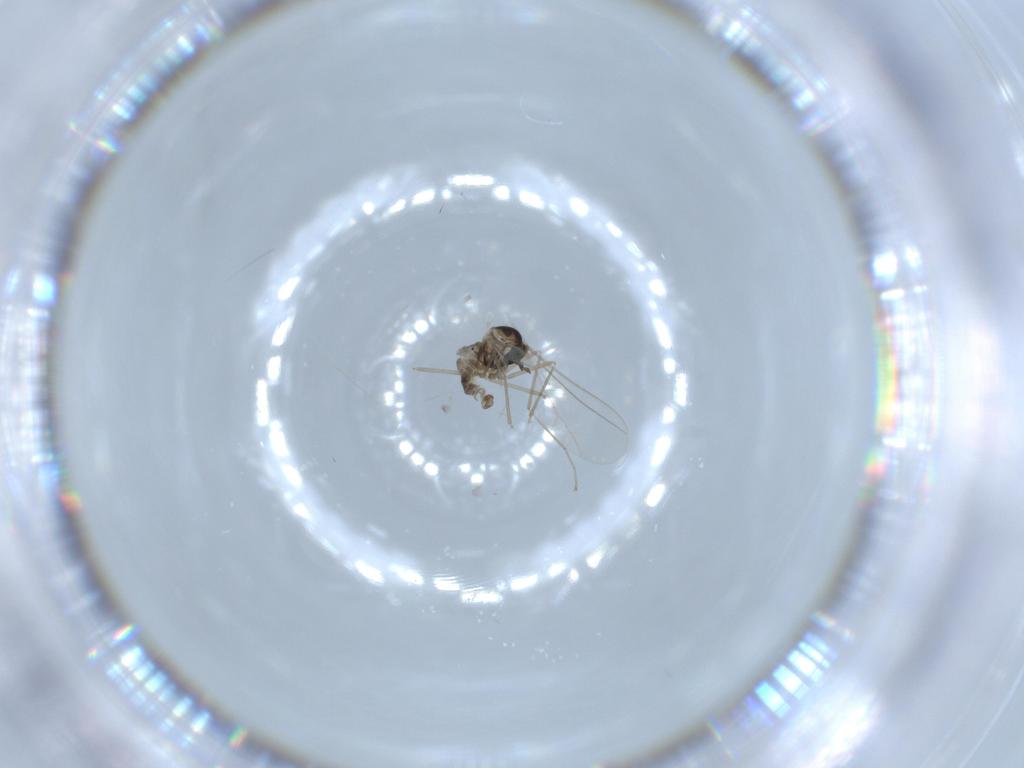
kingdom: Animalia
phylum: Arthropoda
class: Insecta
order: Diptera
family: Cecidomyiidae
